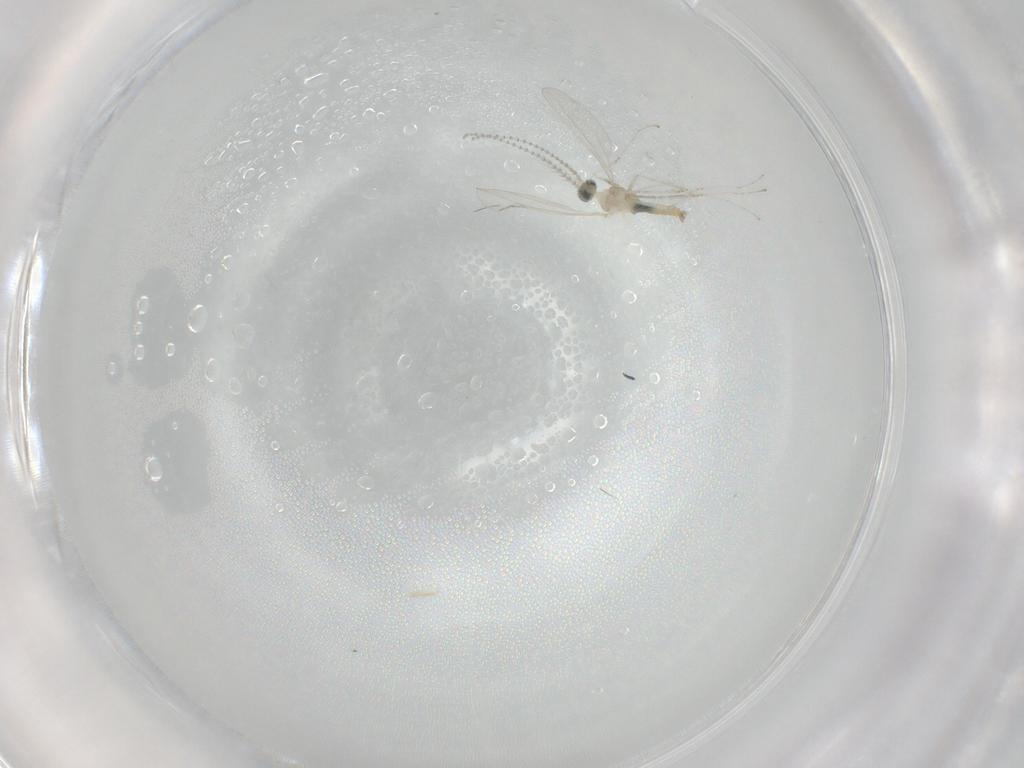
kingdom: Animalia
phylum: Arthropoda
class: Insecta
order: Diptera
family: Cecidomyiidae
